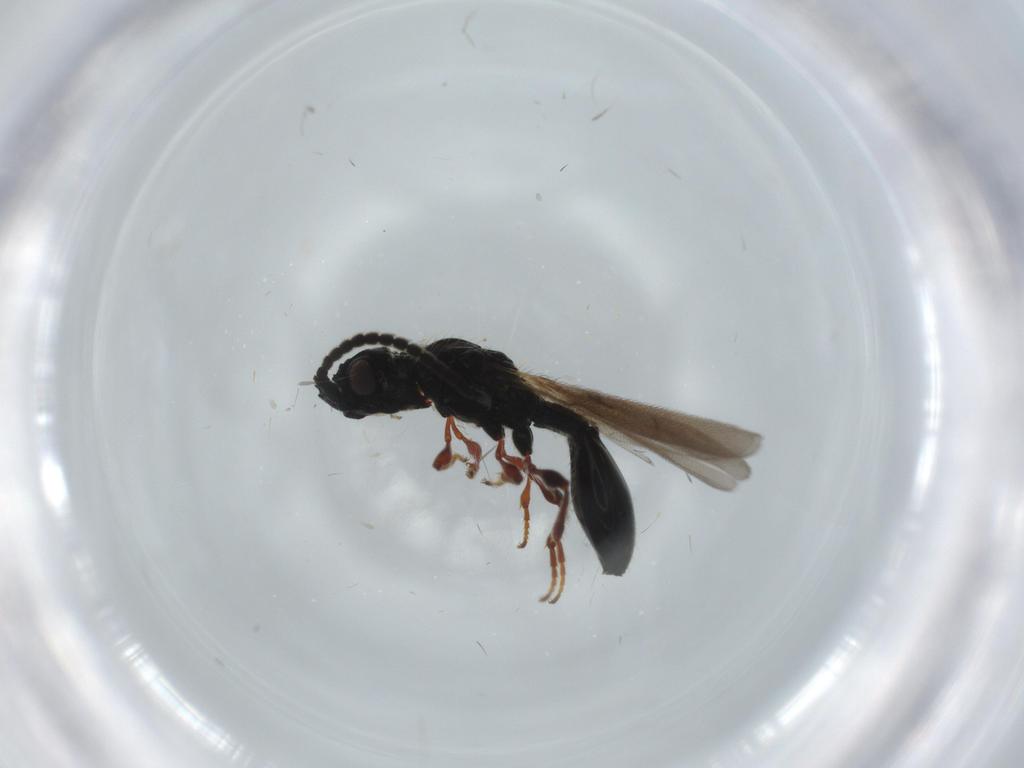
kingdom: Animalia
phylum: Arthropoda
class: Insecta
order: Hymenoptera
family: Diapriidae
